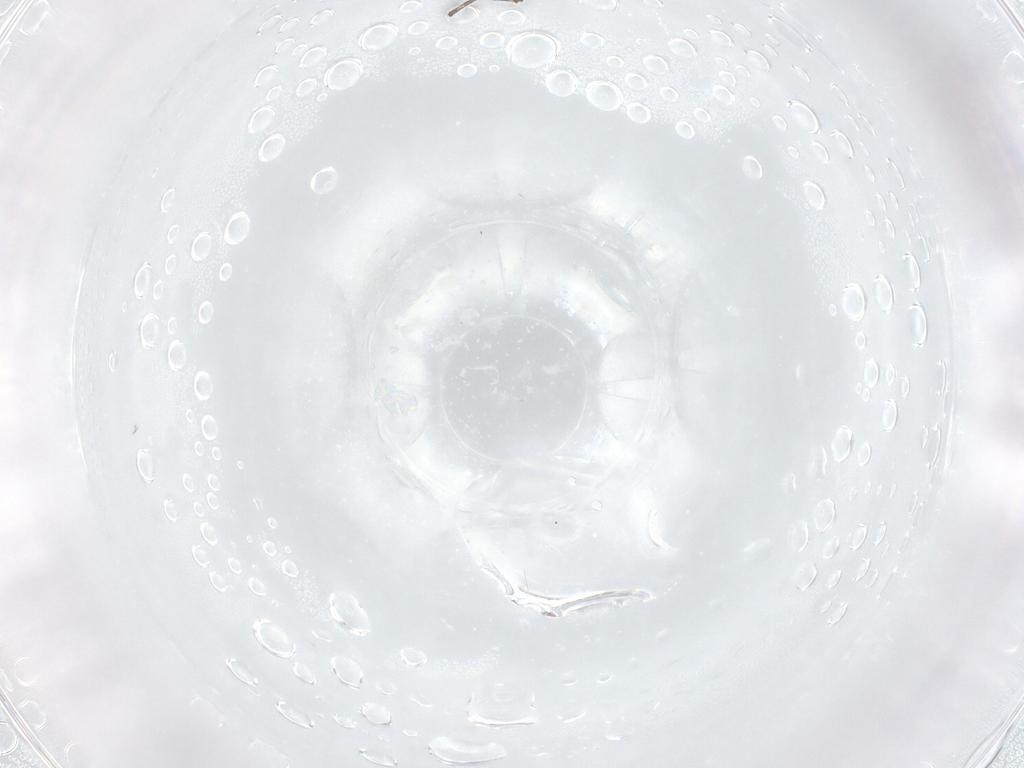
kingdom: Animalia
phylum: Arthropoda
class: Insecta
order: Diptera
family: Chironomidae
